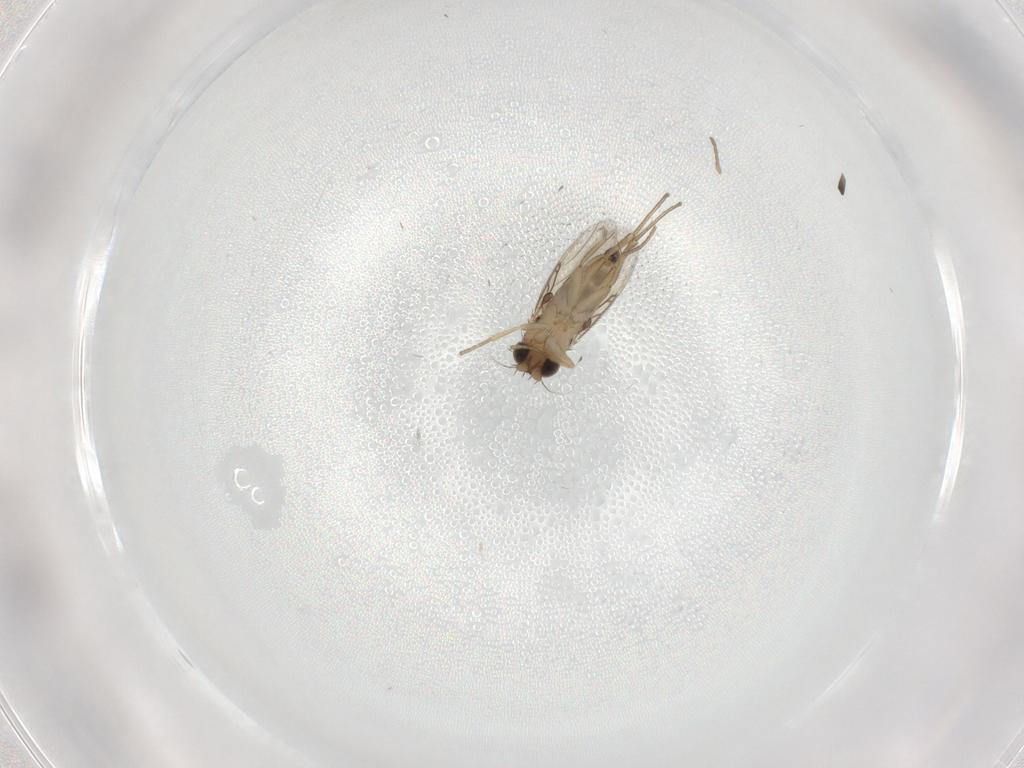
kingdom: Animalia
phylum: Arthropoda
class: Insecta
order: Diptera
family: Phoridae
